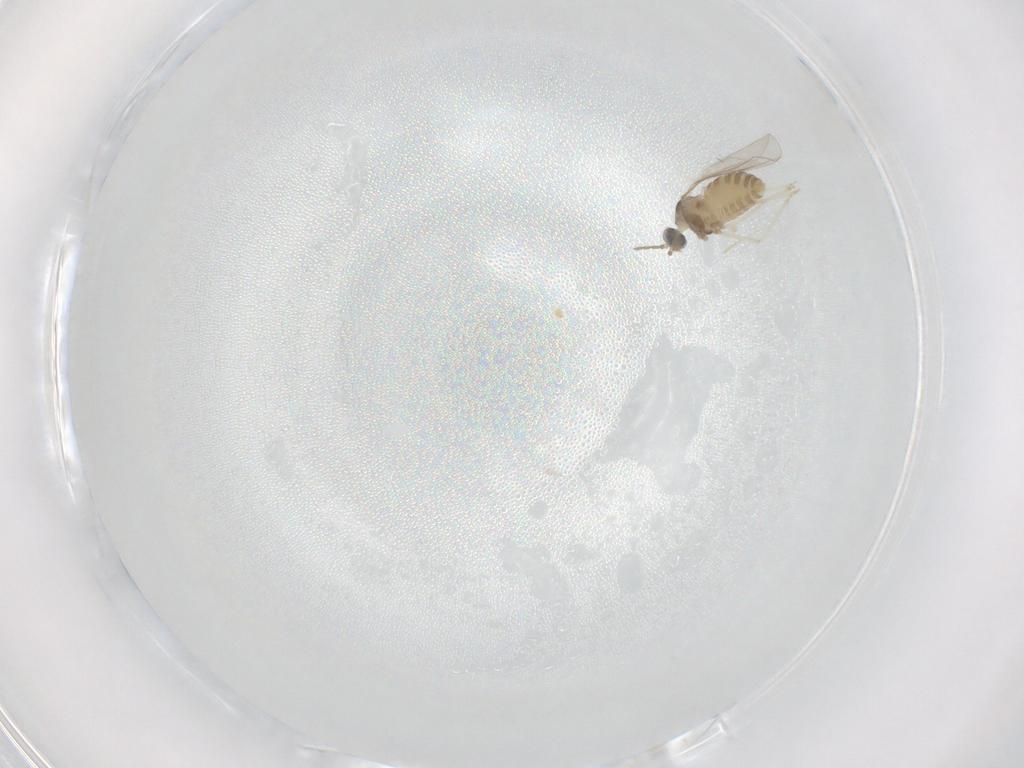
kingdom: Animalia
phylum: Arthropoda
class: Insecta
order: Diptera
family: Cecidomyiidae
